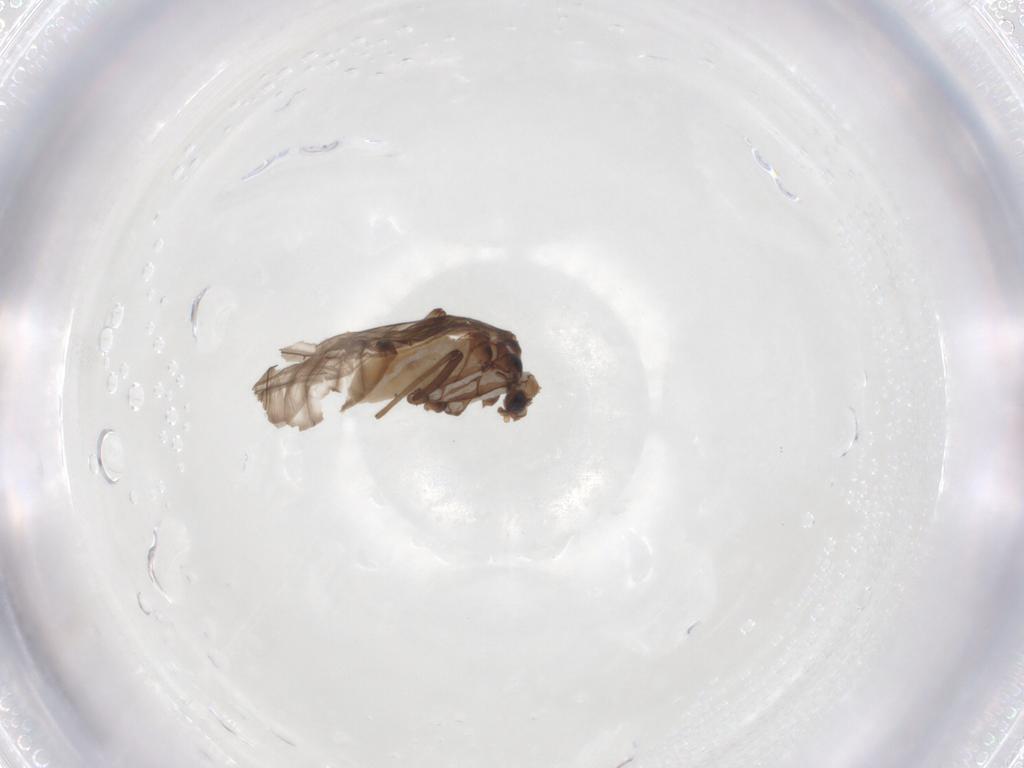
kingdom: Animalia
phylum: Arthropoda
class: Insecta
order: Neuroptera
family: Coniopterygidae
